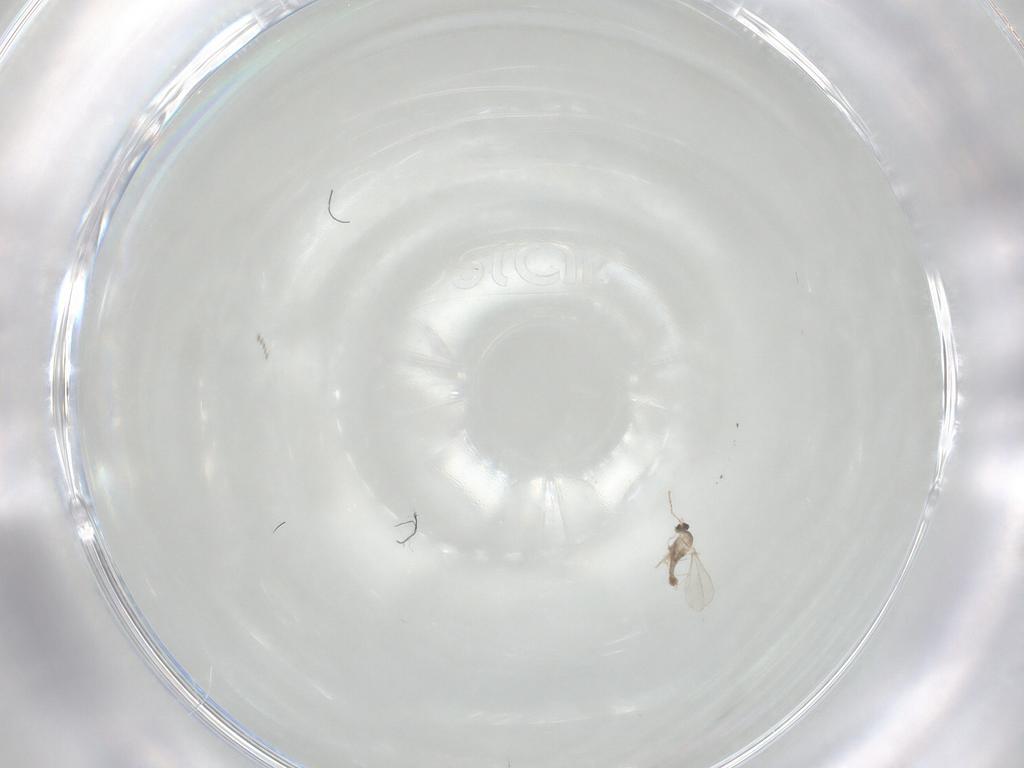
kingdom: Animalia
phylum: Arthropoda
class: Insecta
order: Diptera
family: Cecidomyiidae
